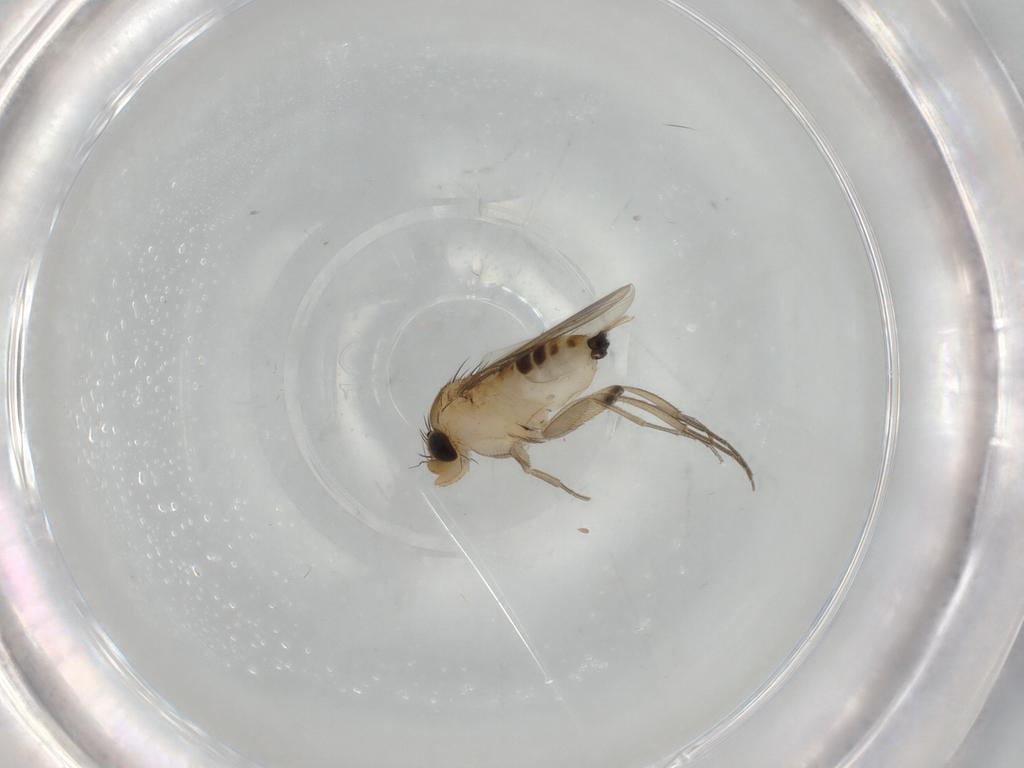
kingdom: Animalia
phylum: Arthropoda
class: Insecta
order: Diptera
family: Phoridae
